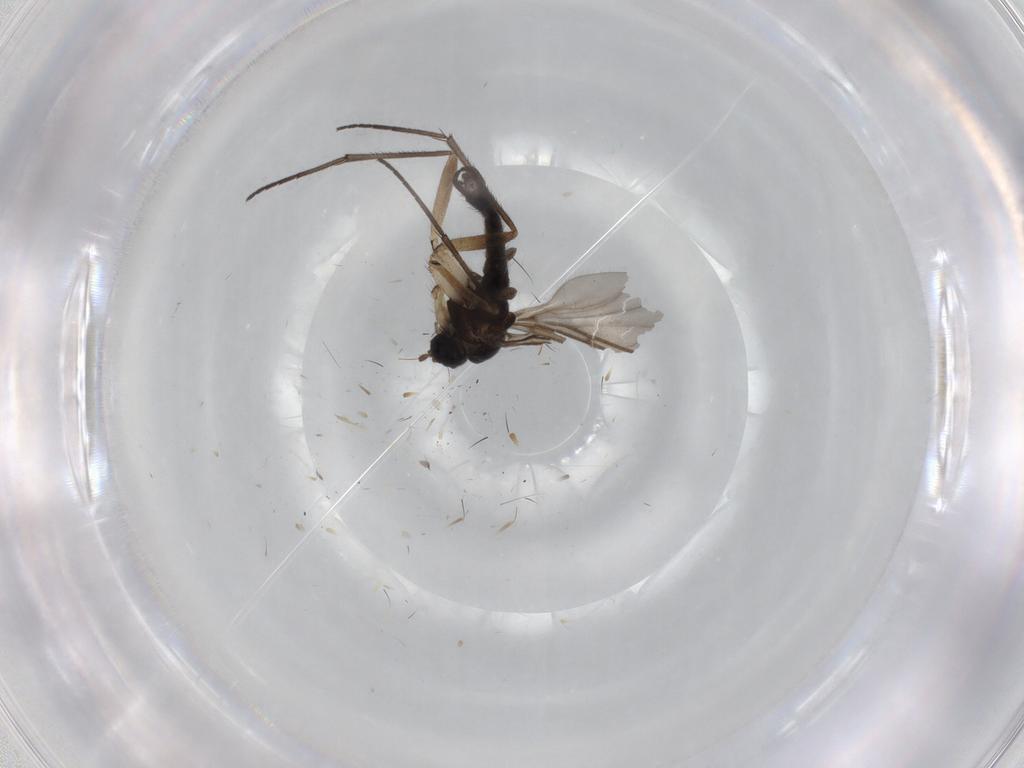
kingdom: Animalia
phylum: Arthropoda
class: Insecta
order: Diptera
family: Sciaridae
